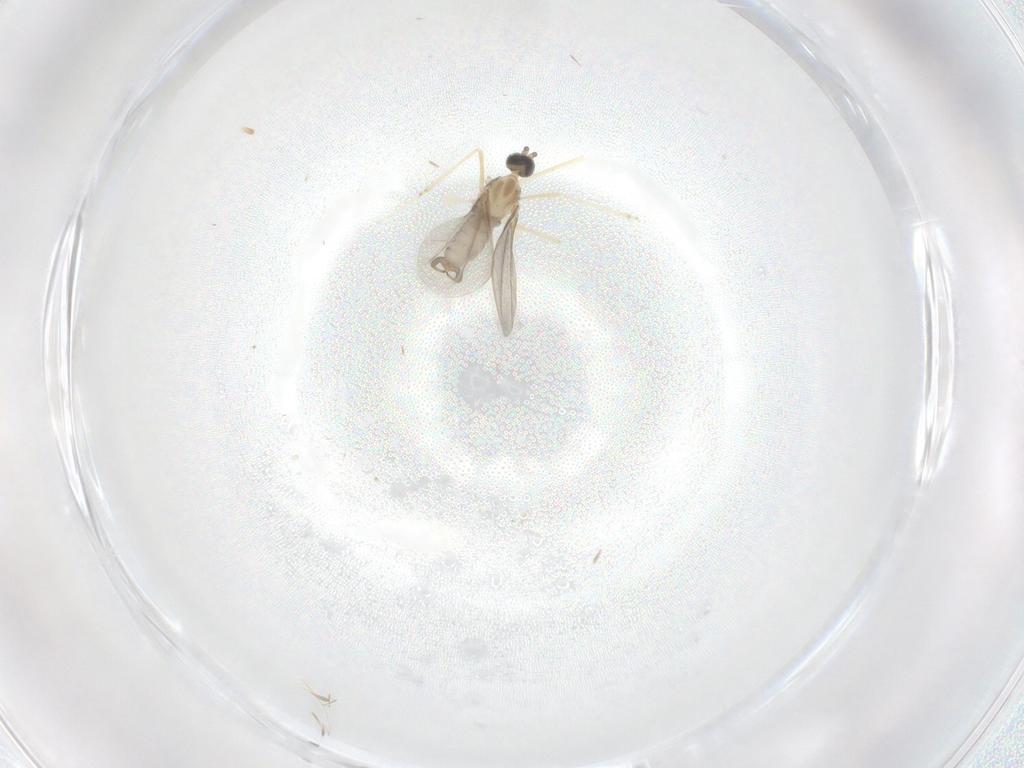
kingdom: Animalia
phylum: Arthropoda
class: Insecta
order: Diptera
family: Cecidomyiidae
